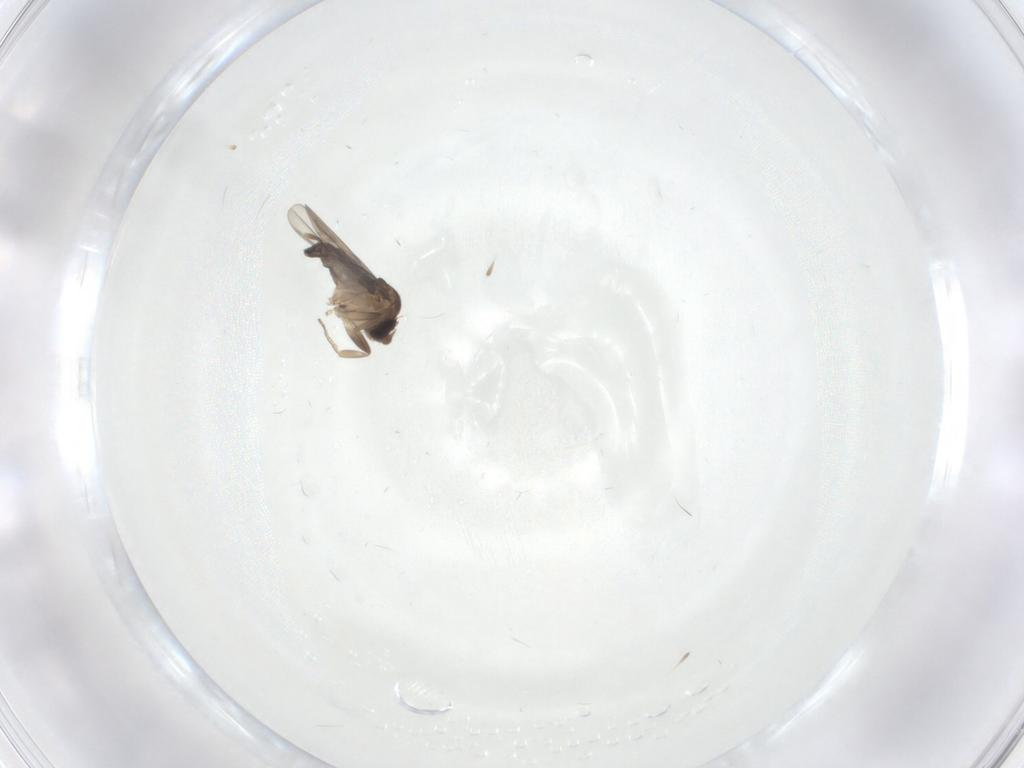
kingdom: Animalia
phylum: Arthropoda
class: Insecta
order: Diptera
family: Phoridae
